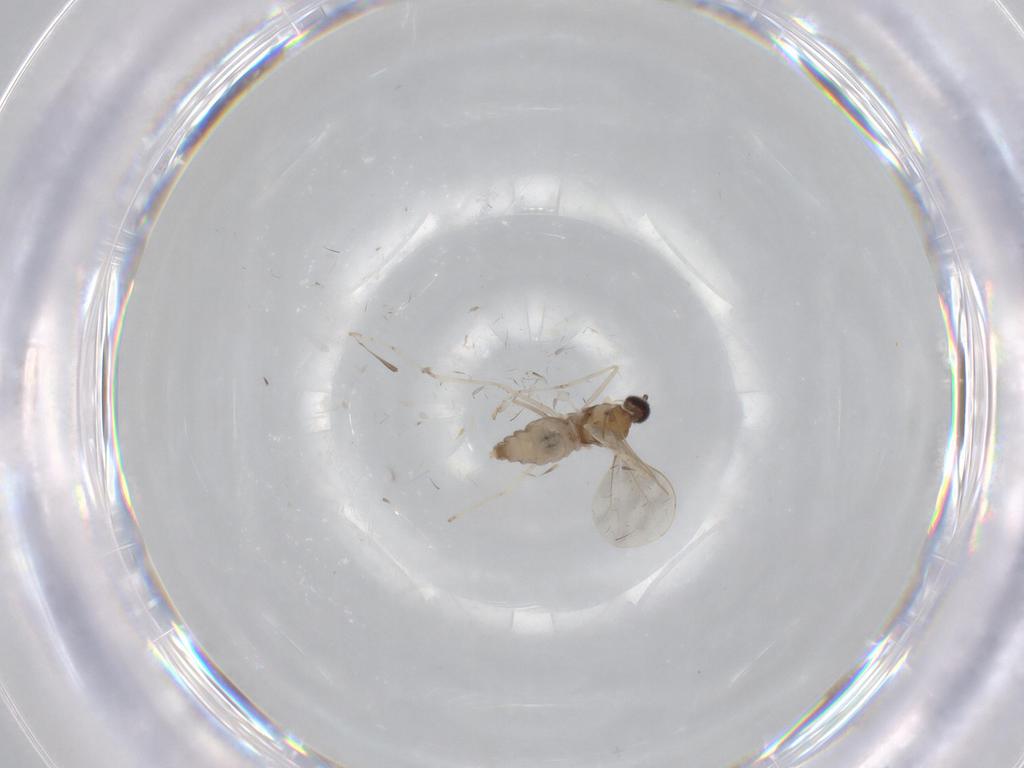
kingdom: Animalia
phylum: Arthropoda
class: Insecta
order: Diptera
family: Cecidomyiidae
